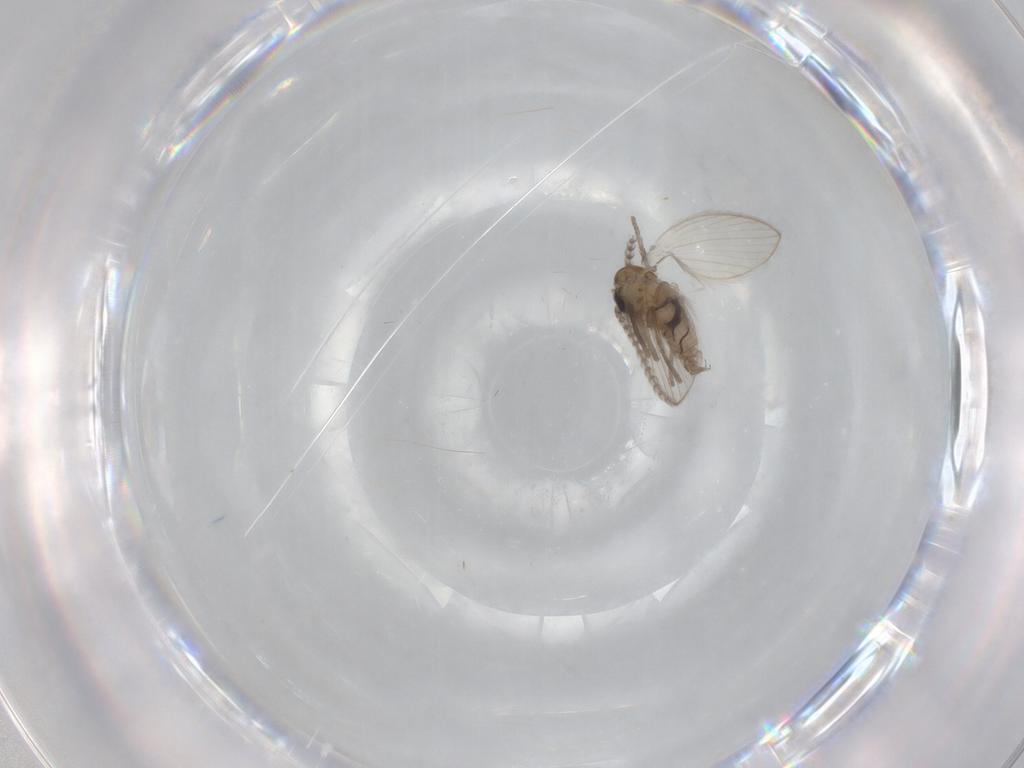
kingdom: Animalia
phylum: Arthropoda
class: Insecta
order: Diptera
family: Psychodidae
